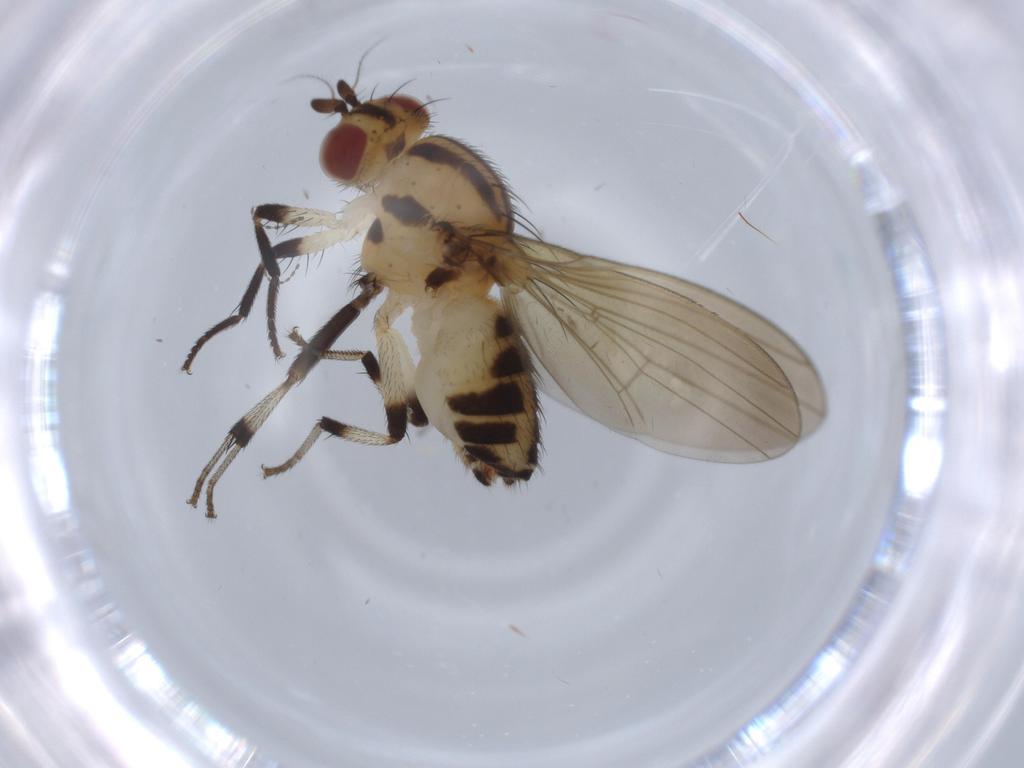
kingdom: Animalia
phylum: Arthropoda
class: Insecta
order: Diptera
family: Lauxaniidae
